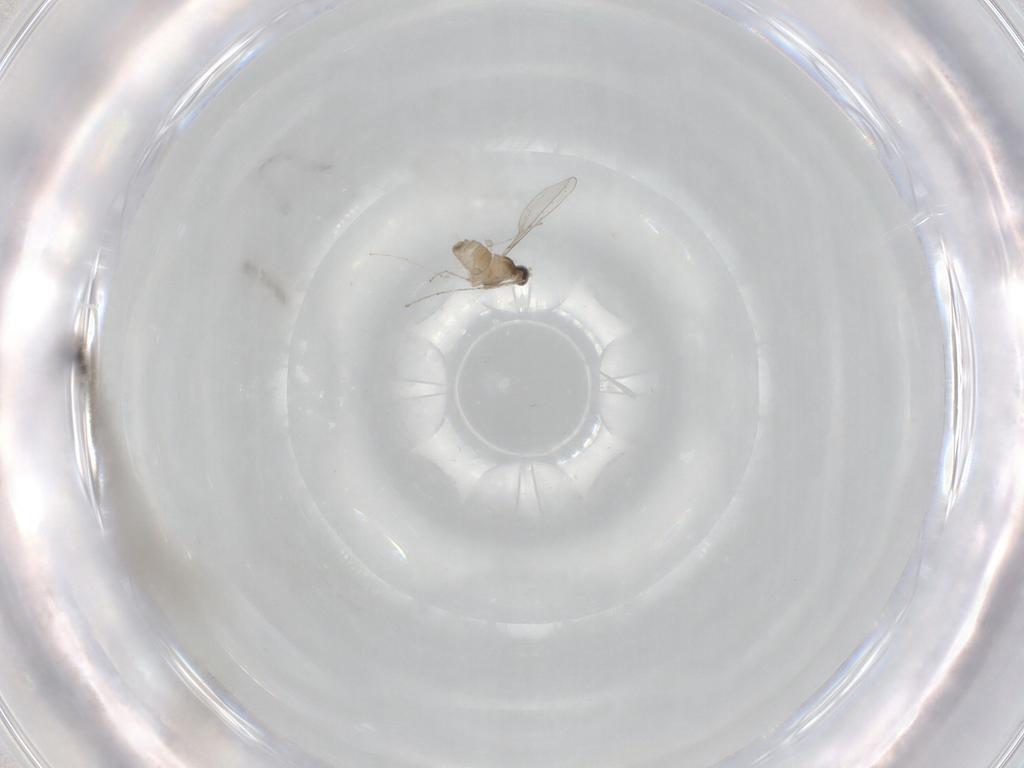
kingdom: Animalia
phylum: Arthropoda
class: Insecta
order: Diptera
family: Limoniidae
